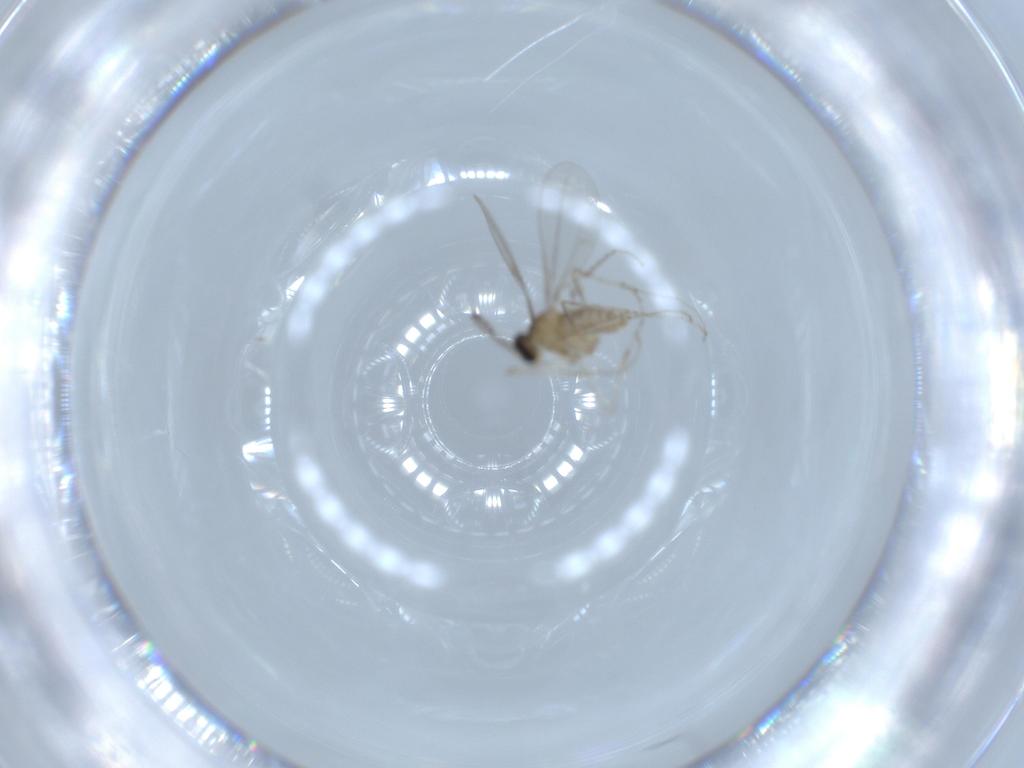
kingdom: Animalia
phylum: Arthropoda
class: Insecta
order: Diptera
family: Cecidomyiidae
